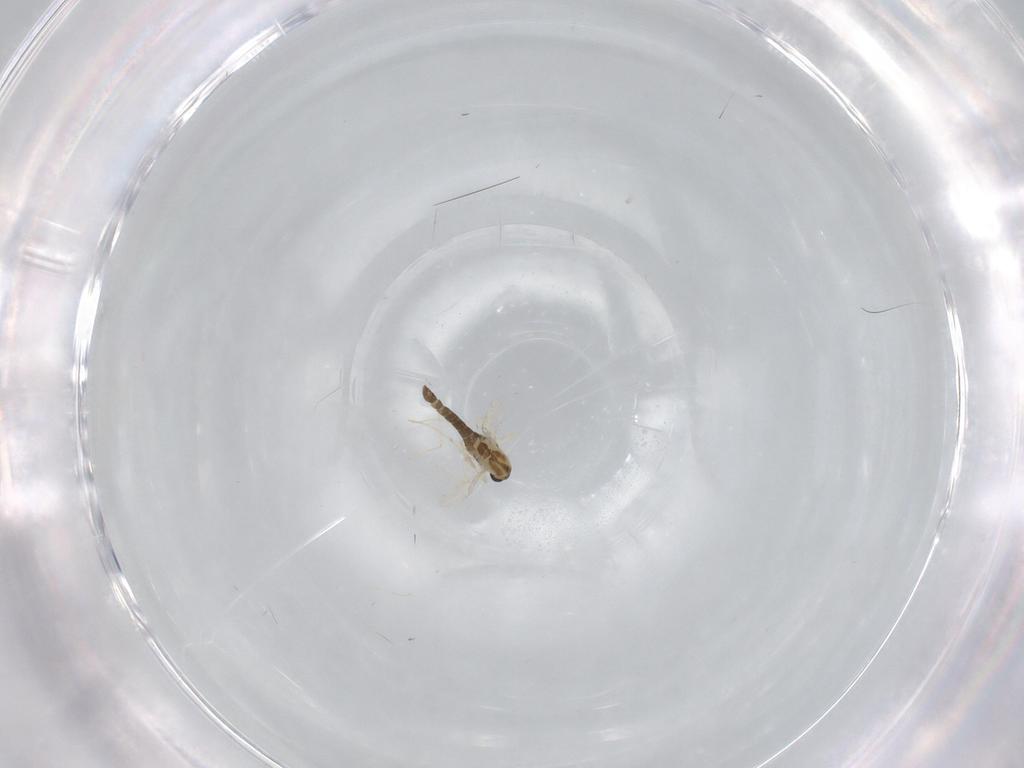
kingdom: Animalia
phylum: Arthropoda
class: Insecta
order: Diptera
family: Chironomidae
